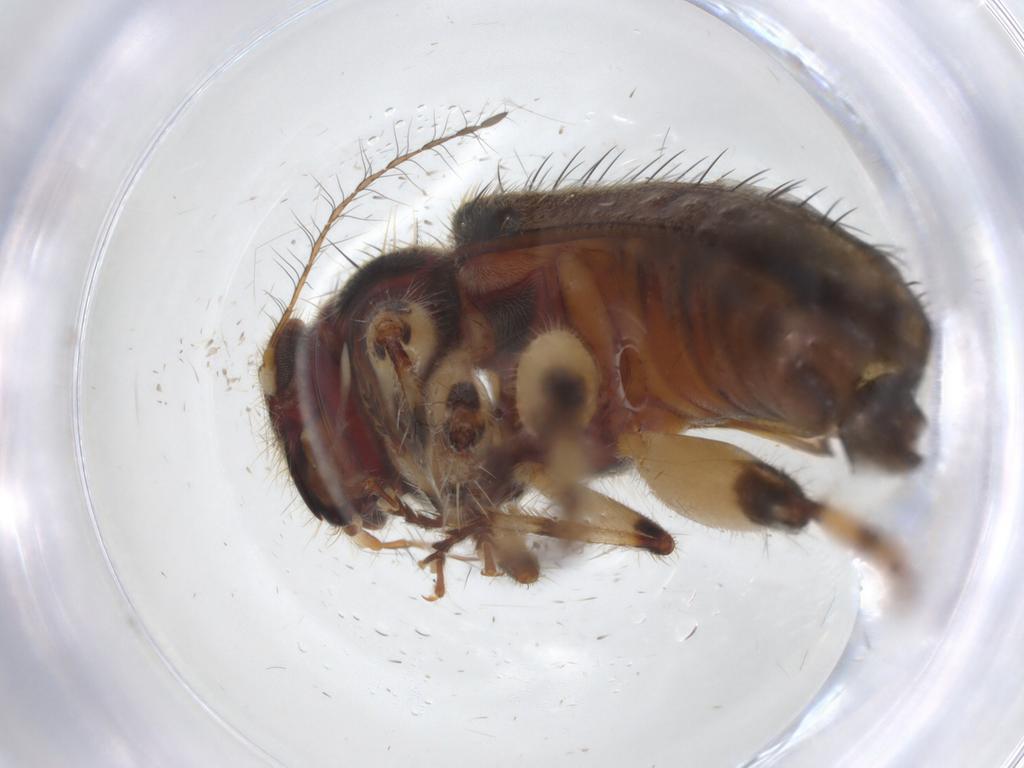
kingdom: Animalia
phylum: Arthropoda
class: Insecta
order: Coleoptera
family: Cleridae
